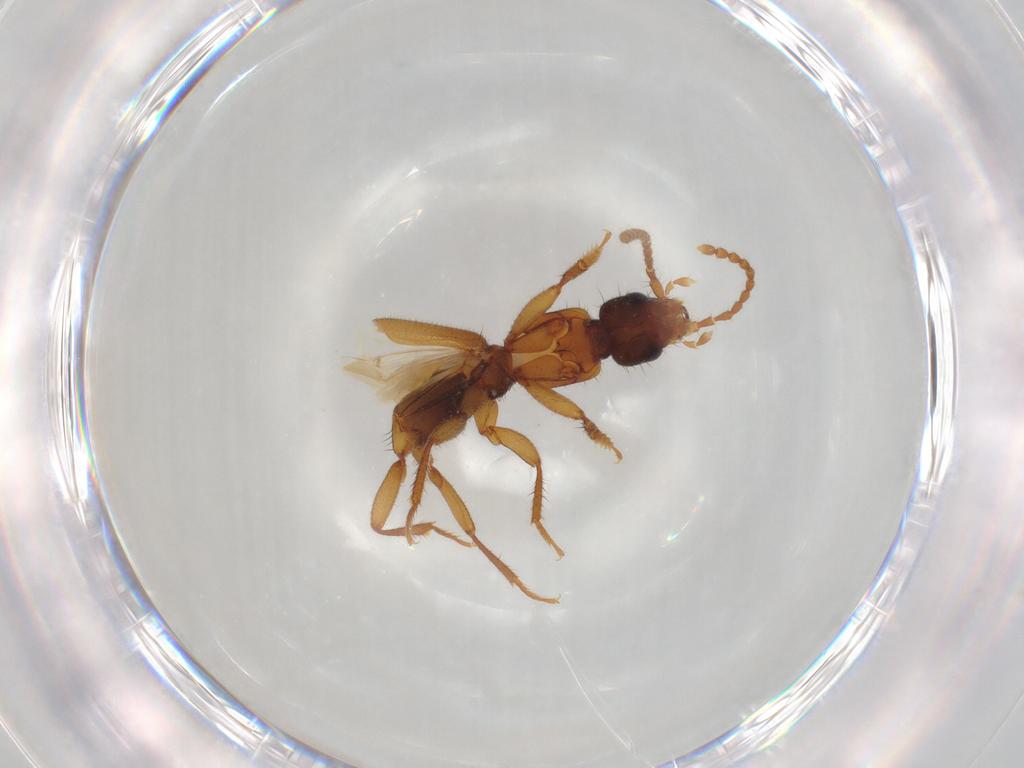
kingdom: Animalia
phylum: Arthropoda
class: Insecta
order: Coleoptera
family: Staphylinidae
